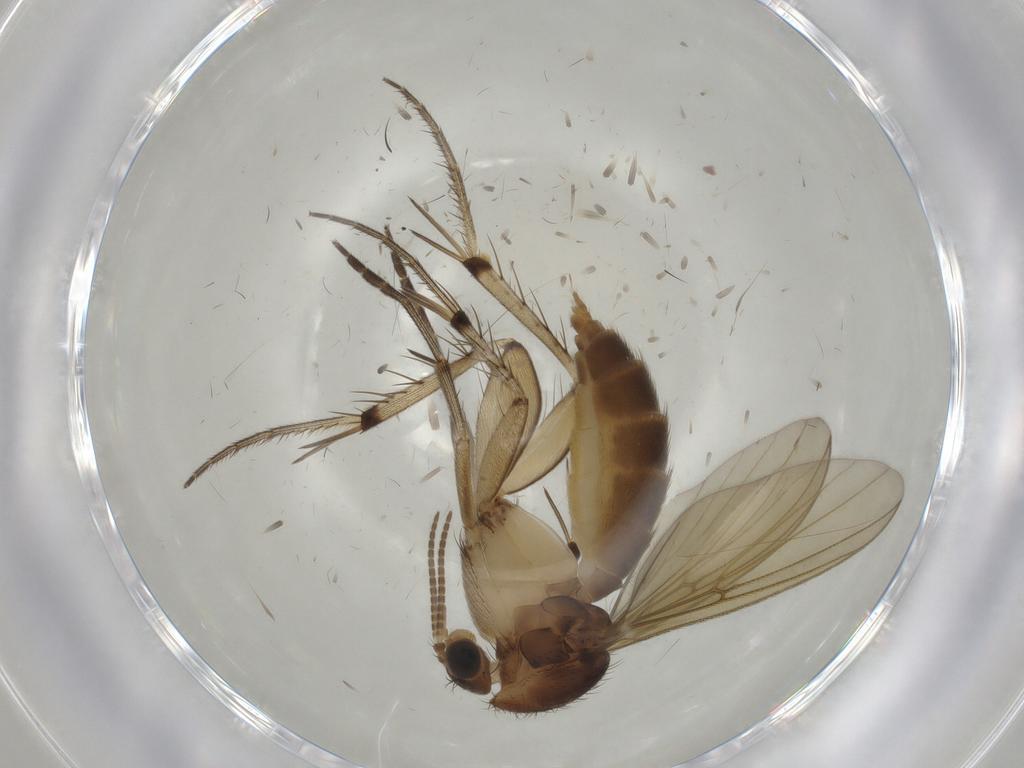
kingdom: Animalia
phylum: Arthropoda
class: Insecta
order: Diptera
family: Mycetophilidae
